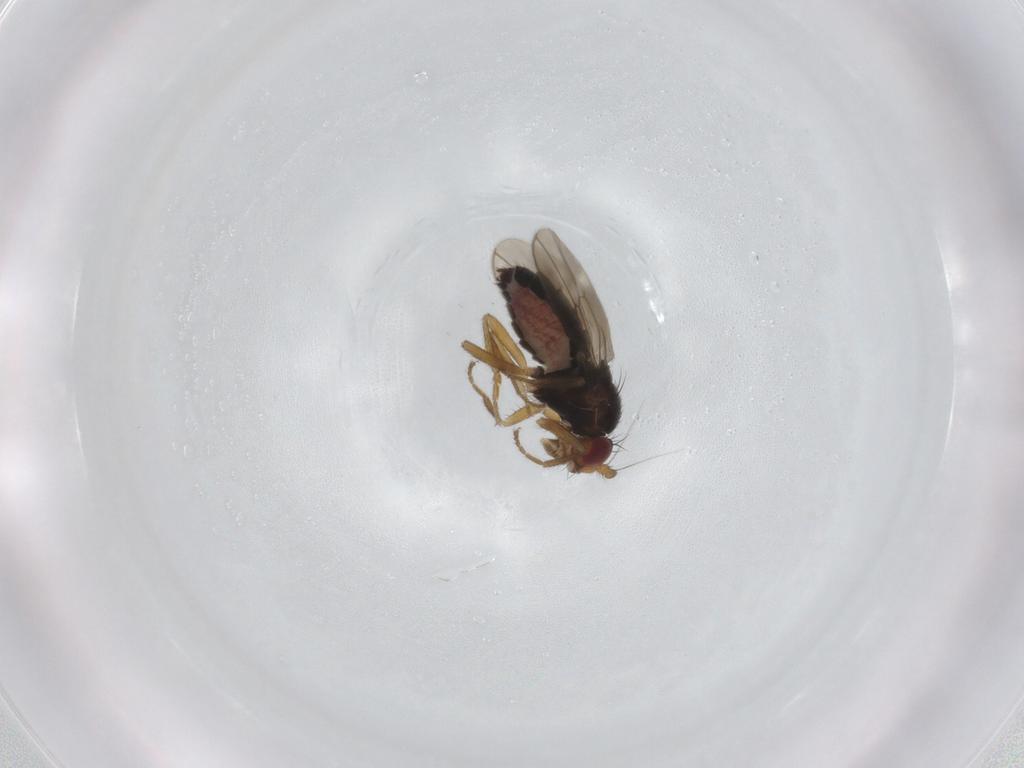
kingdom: Animalia
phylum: Arthropoda
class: Insecta
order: Diptera
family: Sphaeroceridae
